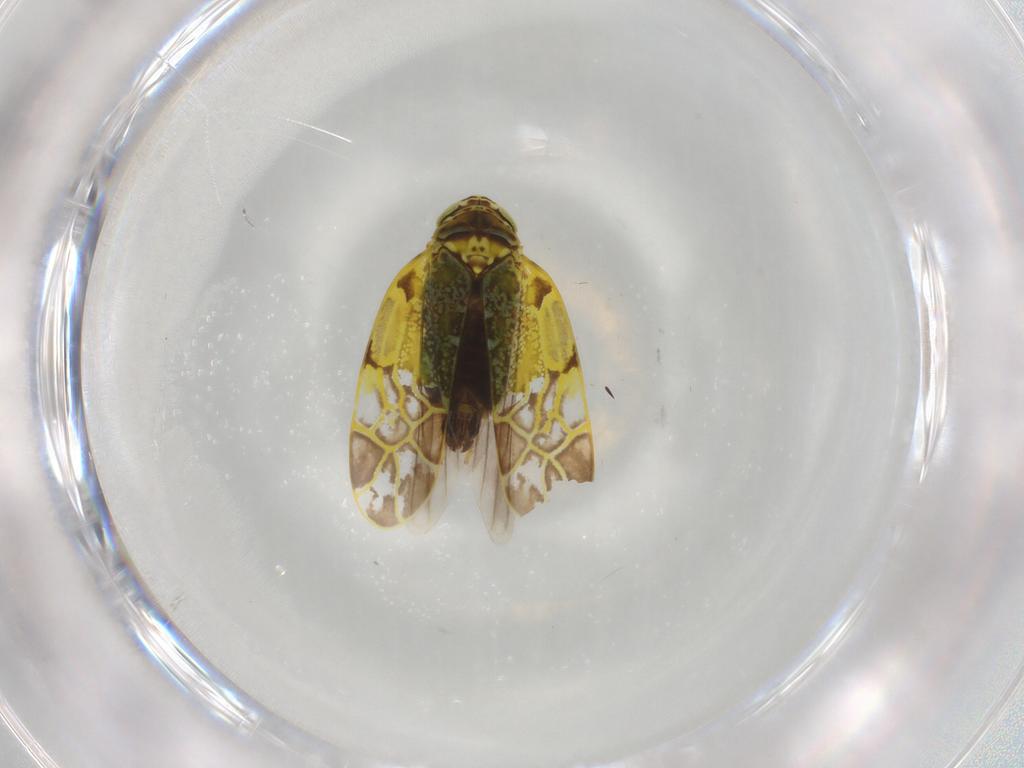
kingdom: Animalia
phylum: Arthropoda
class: Insecta
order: Hemiptera
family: Cicadellidae
